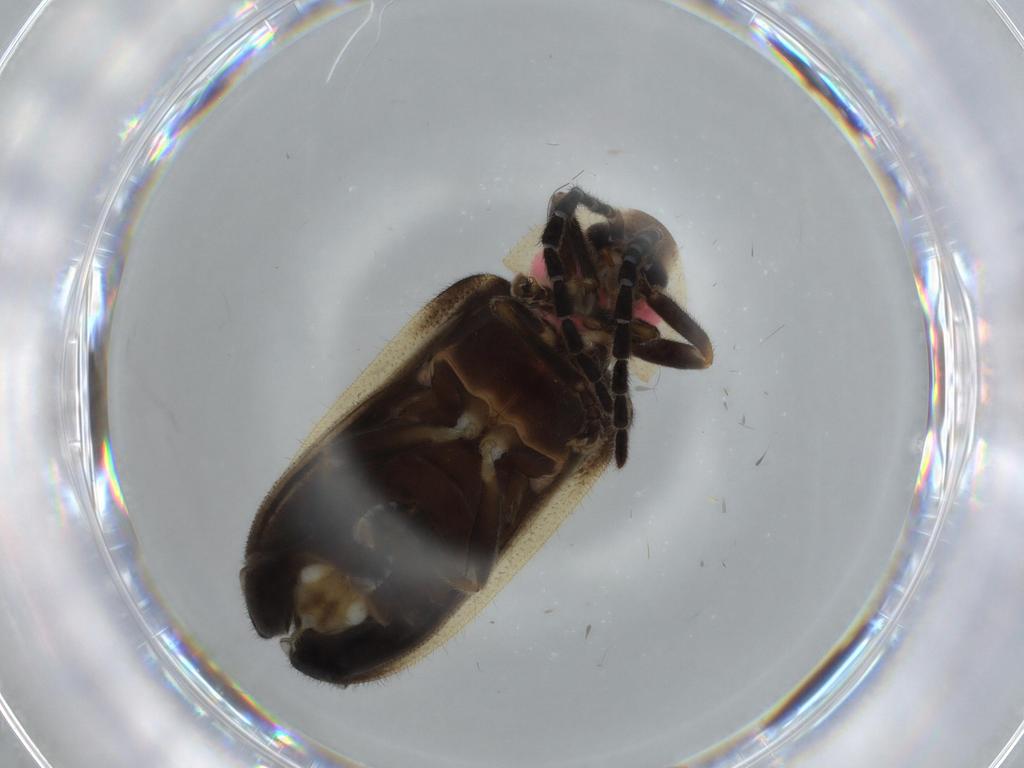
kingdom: Animalia
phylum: Arthropoda
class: Insecta
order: Coleoptera
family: Lampyridae
